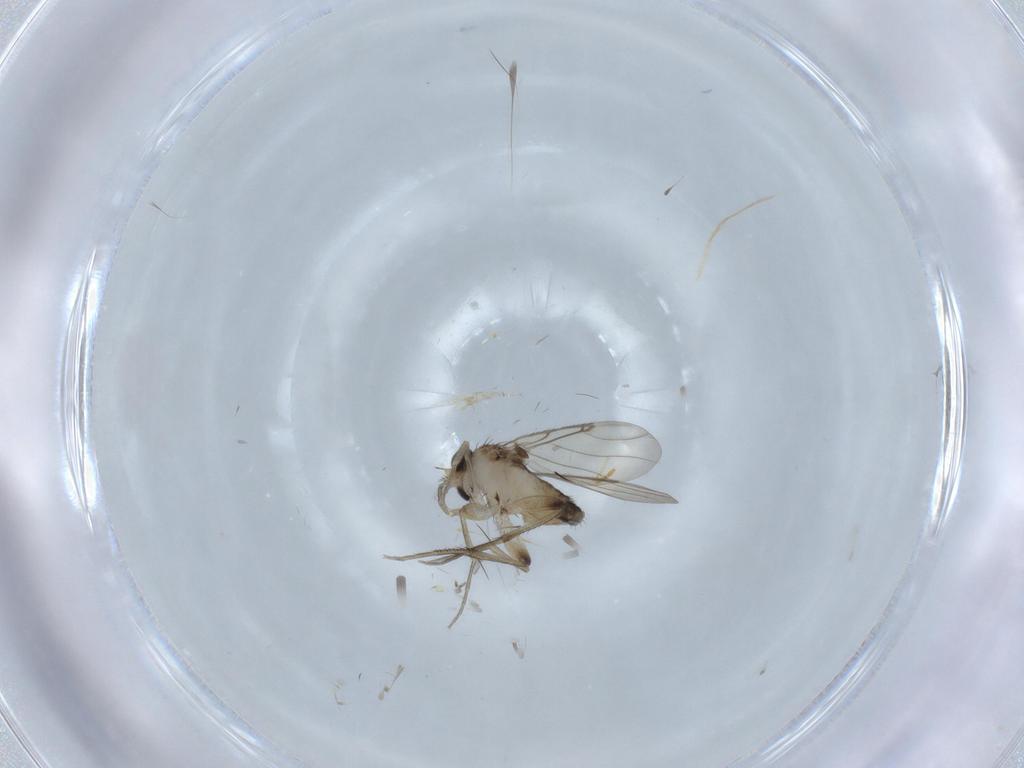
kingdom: Animalia
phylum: Arthropoda
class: Insecta
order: Diptera
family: Phoridae
